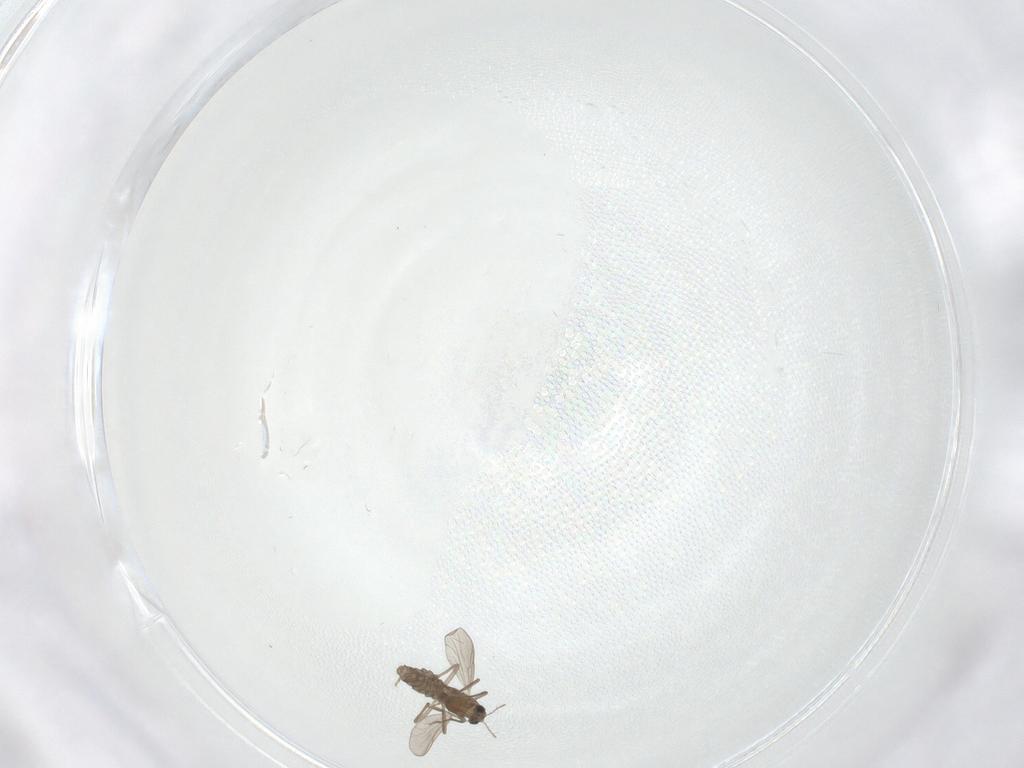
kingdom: Animalia
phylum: Arthropoda
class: Insecta
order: Diptera
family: Chironomidae
